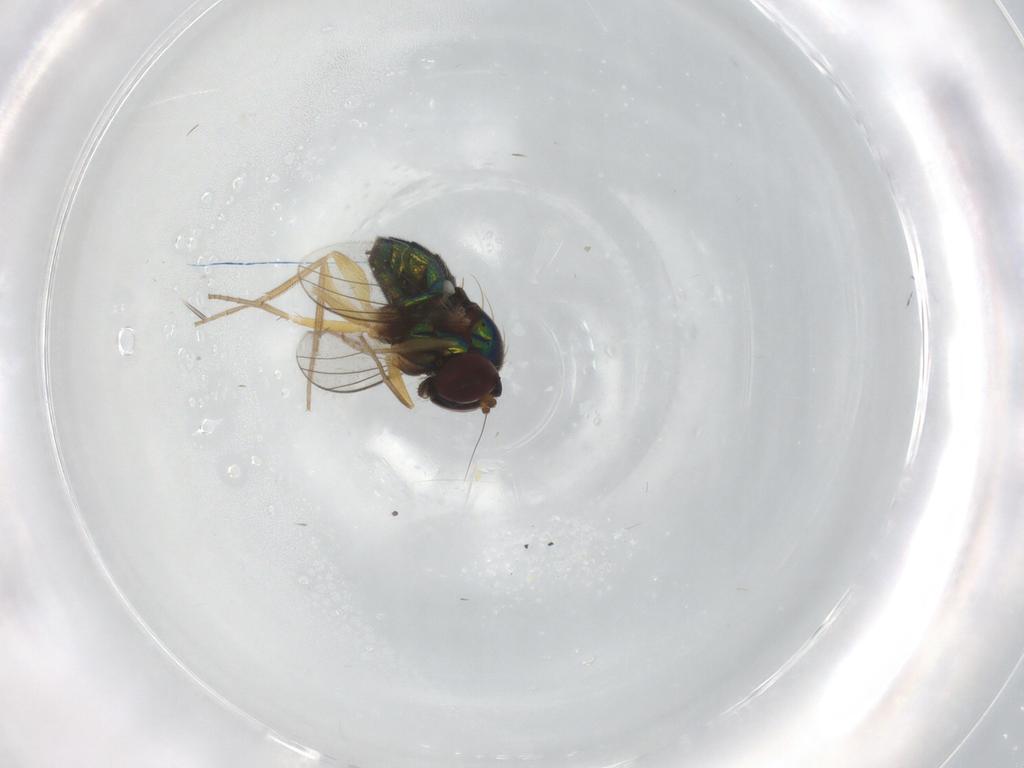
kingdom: Animalia
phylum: Arthropoda
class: Insecta
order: Diptera
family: Dolichopodidae
